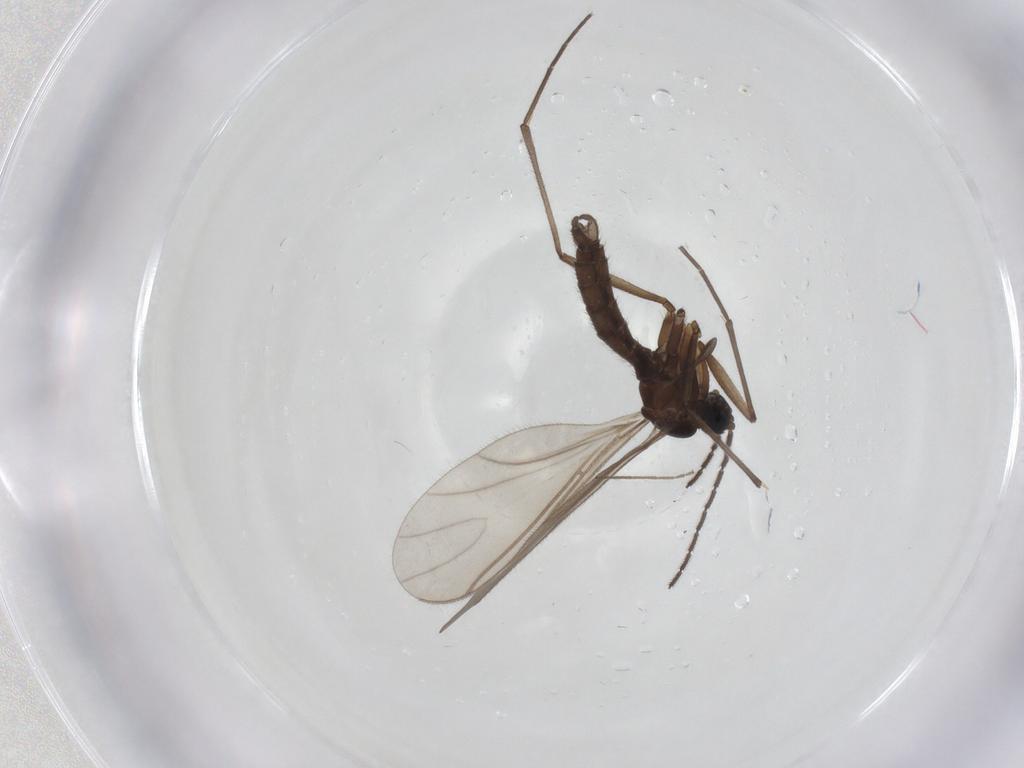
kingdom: Animalia
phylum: Arthropoda
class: Insecta
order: Diptera
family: Sciaridae
